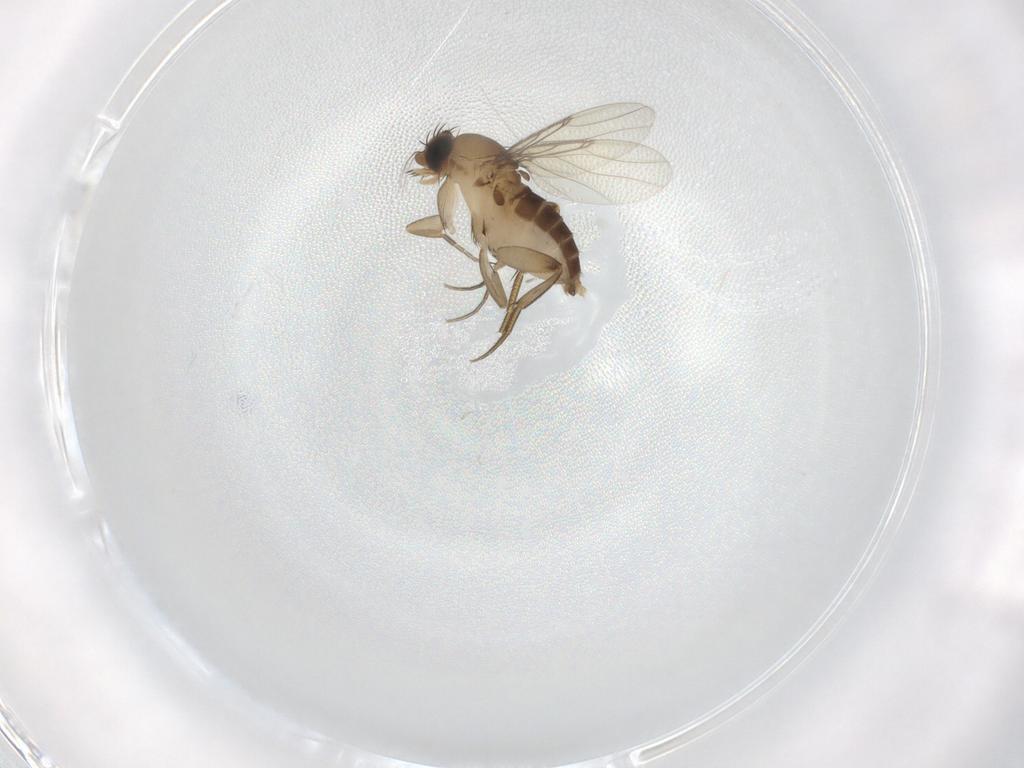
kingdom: Animalia
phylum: Arthropoda
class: Insecta
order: Diptera
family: Phoridae
